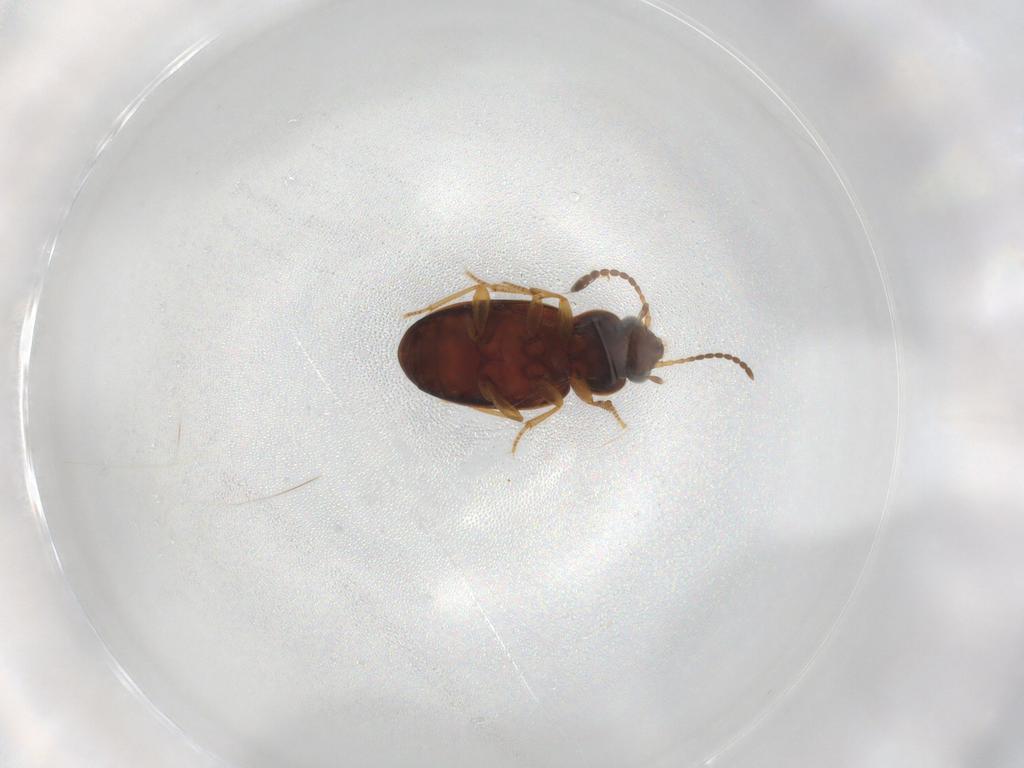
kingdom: Animalia
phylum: Arthropoda
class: Insecta
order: Coleoptera
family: Carabidae
